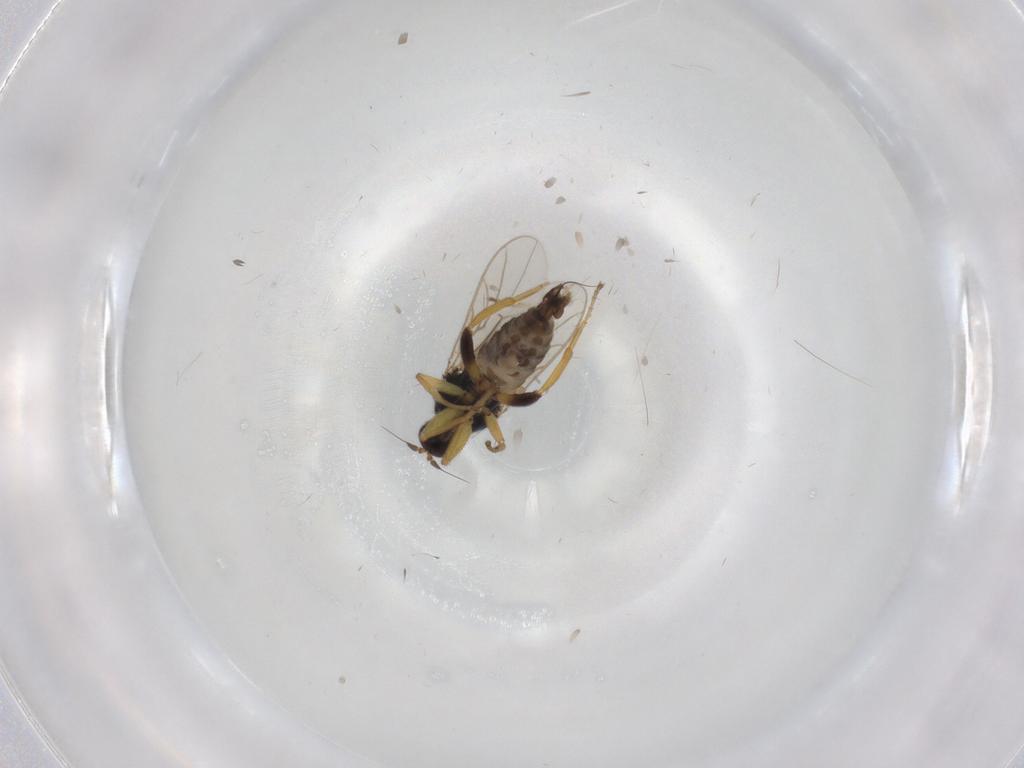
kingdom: Animalia
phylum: Arthropoda
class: Insecta
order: Diptera
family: Hybotidae
